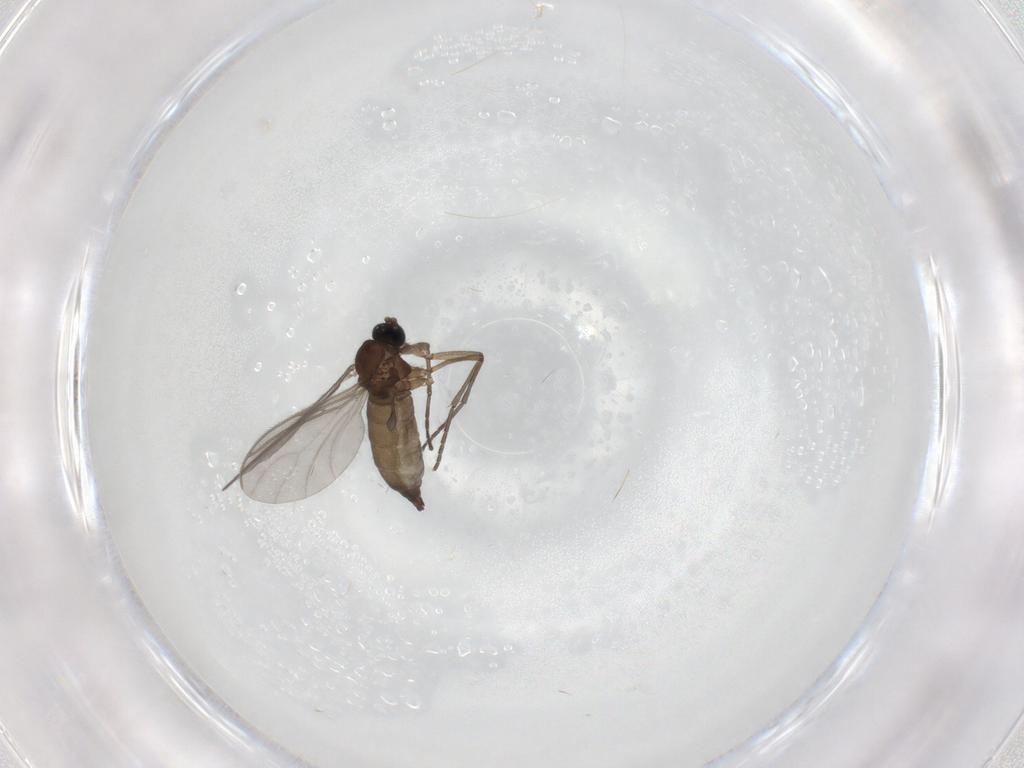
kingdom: Animalia
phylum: Arthropoda
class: Insecta
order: Diptera
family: Sciaridae
